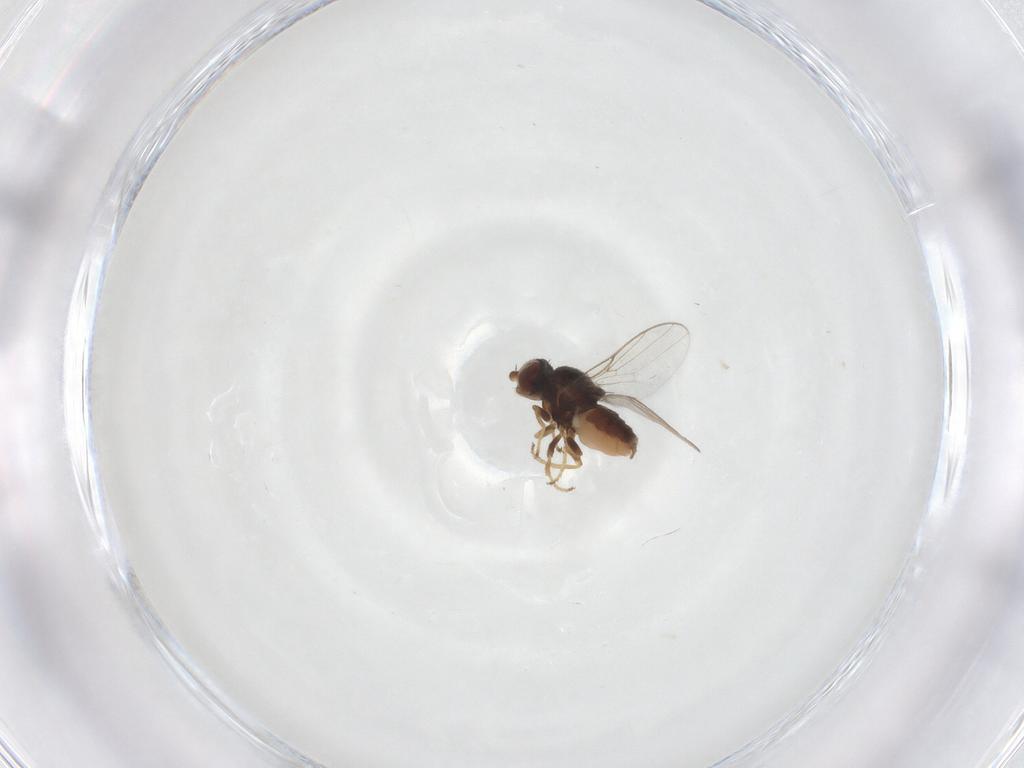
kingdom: Animalia
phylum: Arthropoda
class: Insecta
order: Diptera
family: Chloropidae
